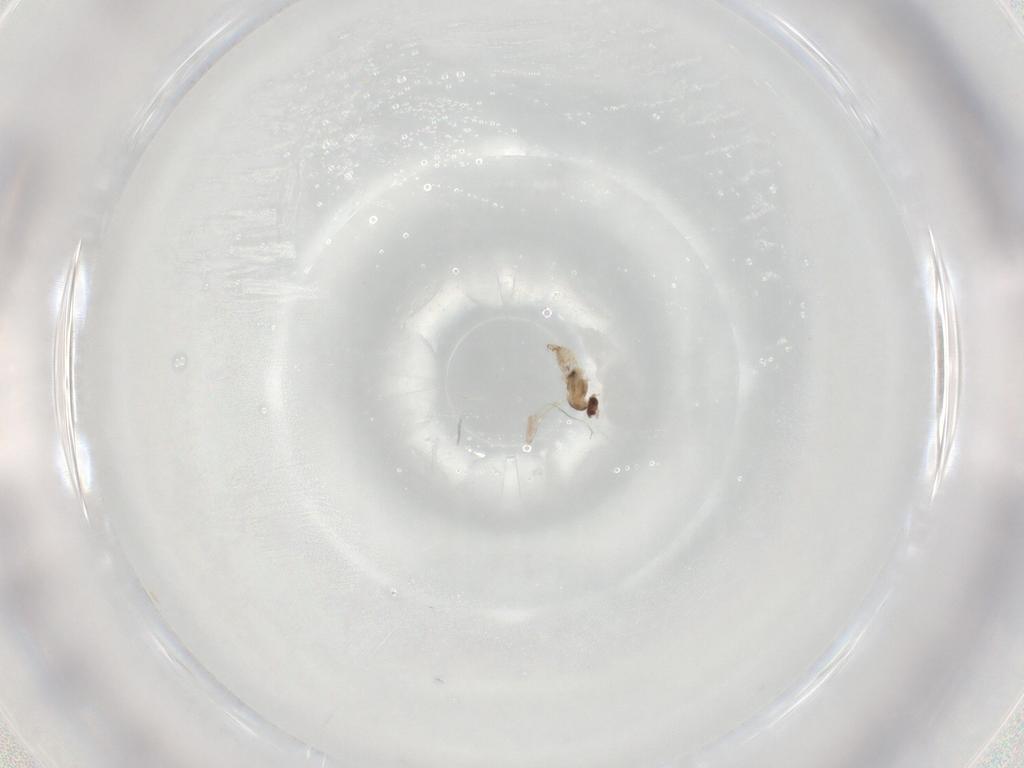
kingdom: Animalia
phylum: Arthropoda
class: Insecta
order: Diptera
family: Cecidomyiidae
